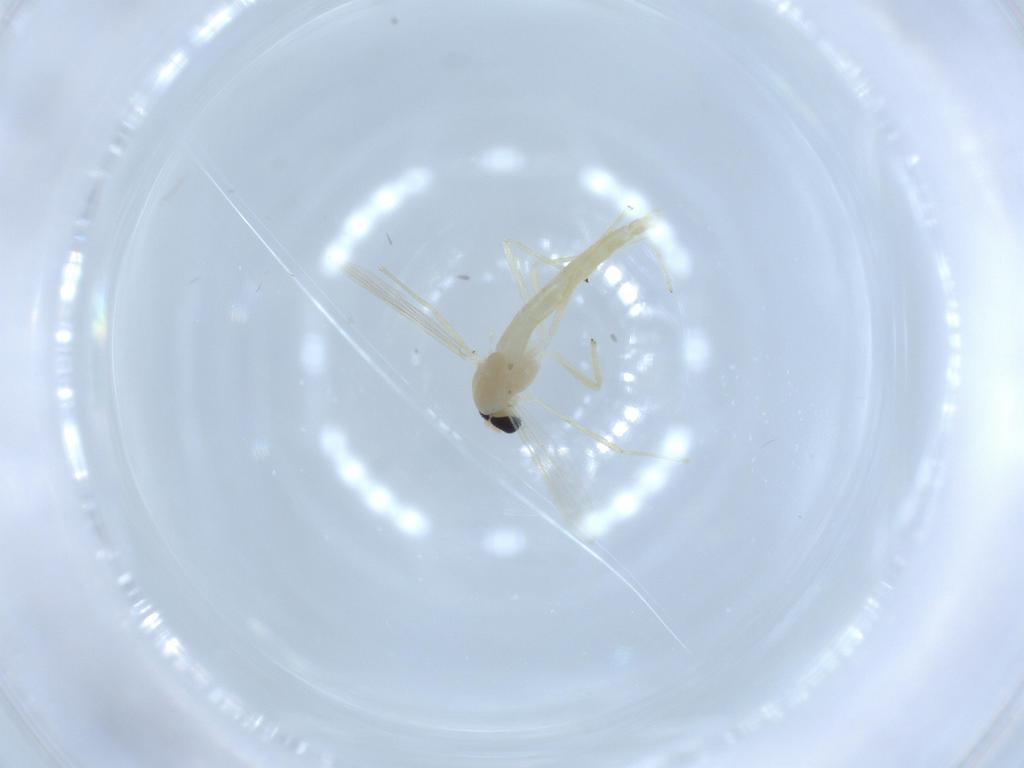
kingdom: Animalia
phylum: Arthropoda
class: Insecta
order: Diptera
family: Chironomidae
